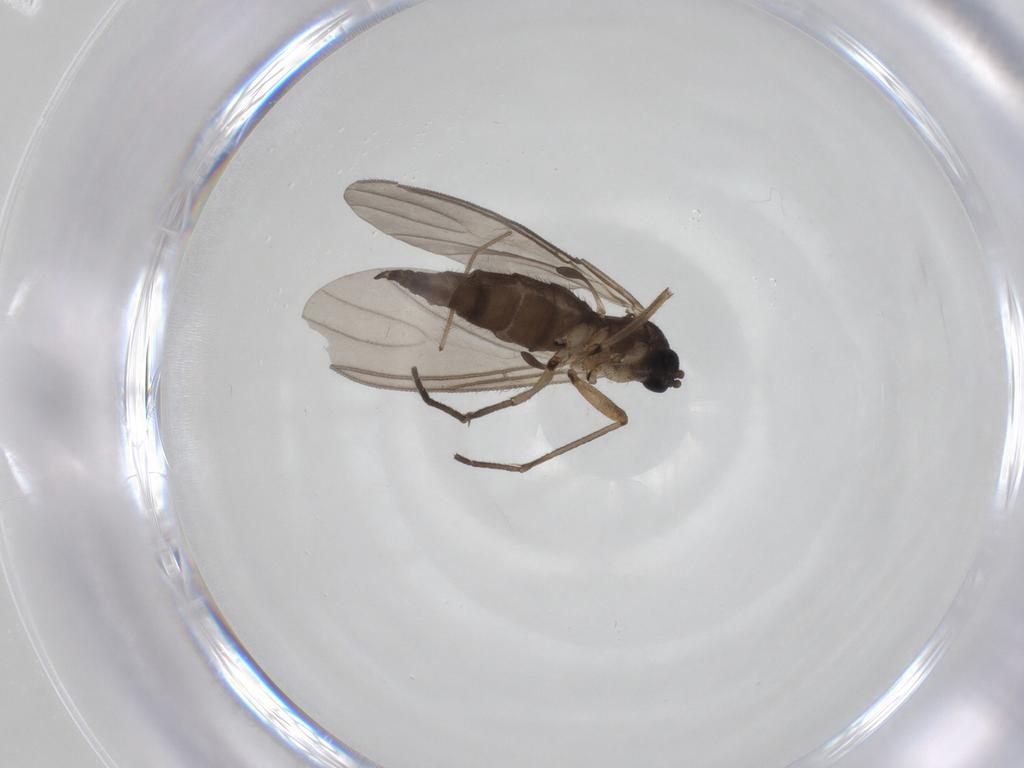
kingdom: Animalia
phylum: Arthropoda
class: Insecta
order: Diptera
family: Sciaridae
